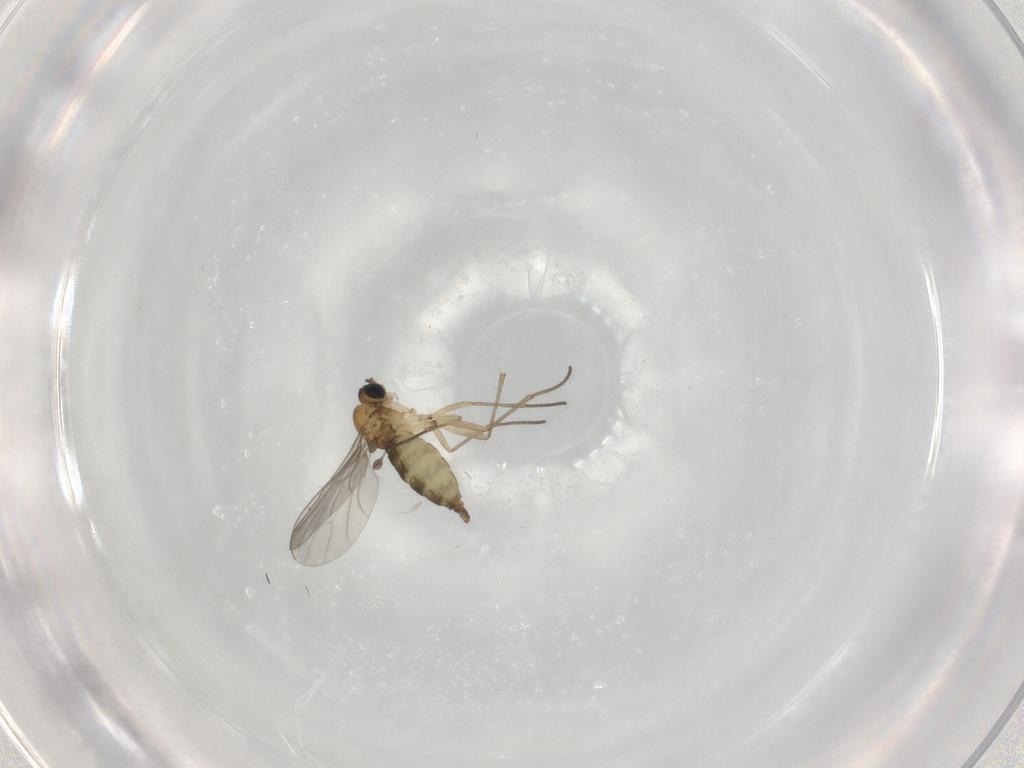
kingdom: Animalia
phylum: Arthropoda
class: Insecta
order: Diptera
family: Sciaridae
